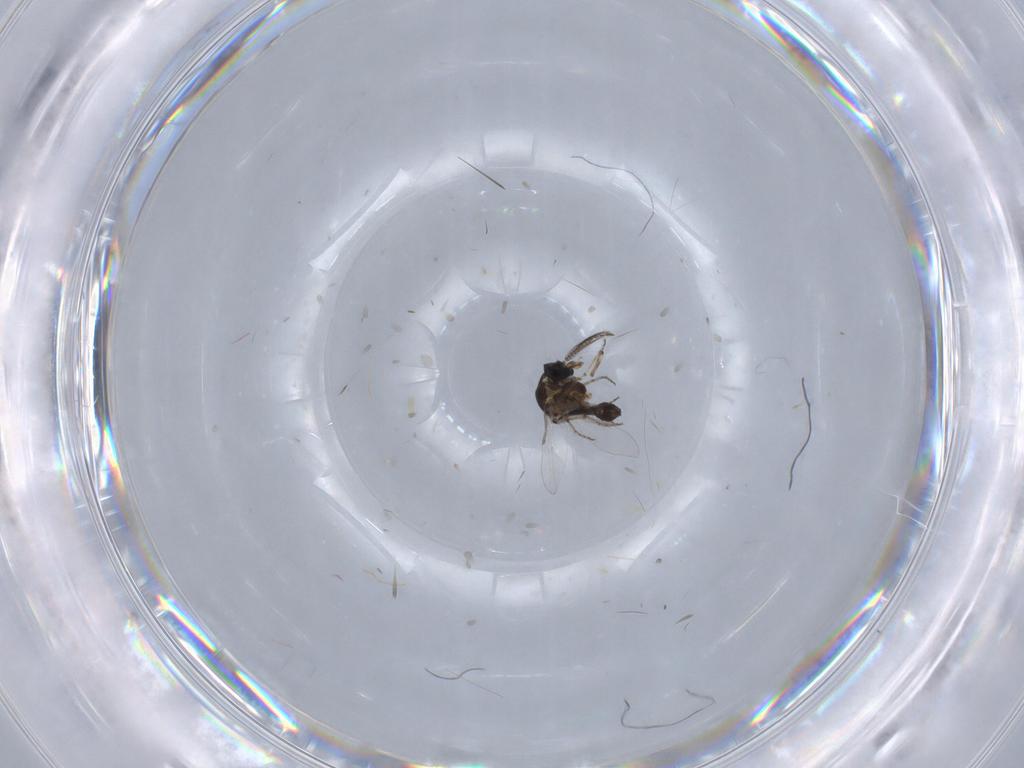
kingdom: Animalia
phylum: Arthropoda
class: Insecta
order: Diptera
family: Ceratopogonidae
